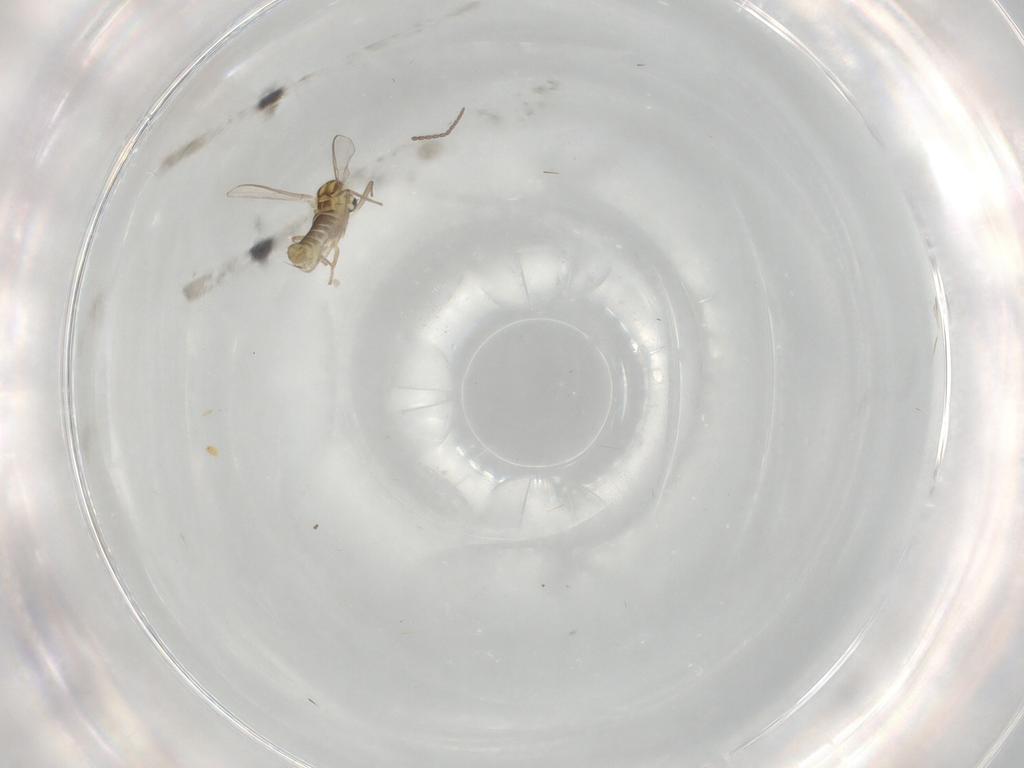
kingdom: Animalia
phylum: Arthropoda
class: Insecta
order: Diptera
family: Chironomidae
